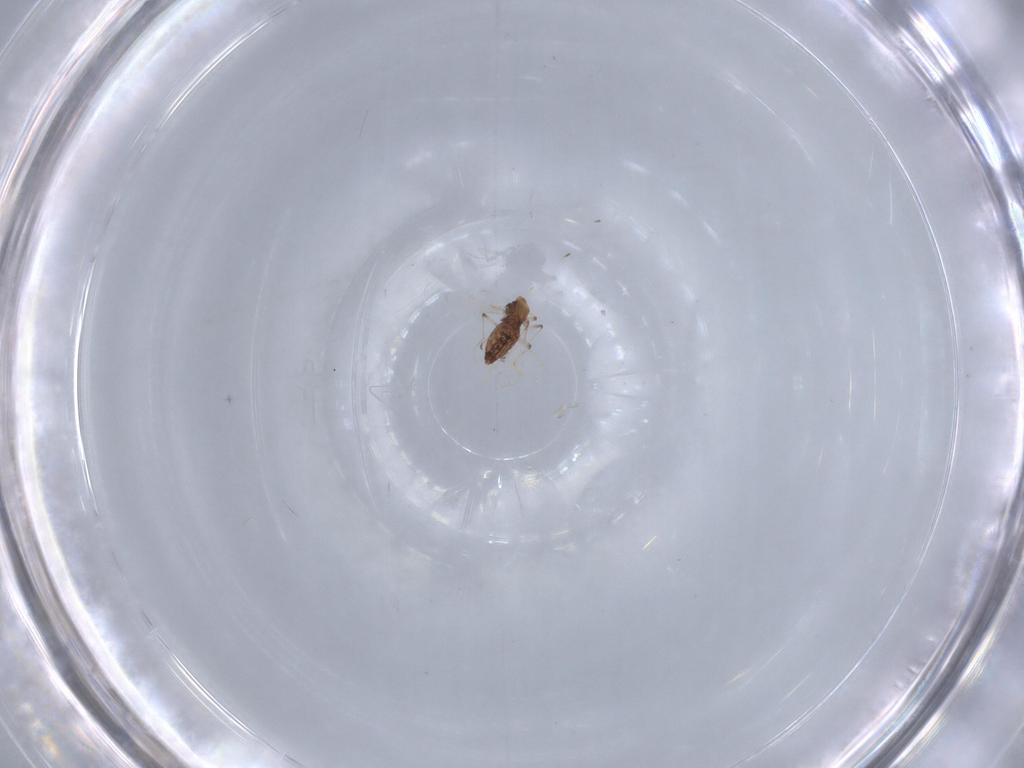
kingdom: Animalia
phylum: Arthropoda
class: Insecta
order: Diptera
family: Chironomidae
